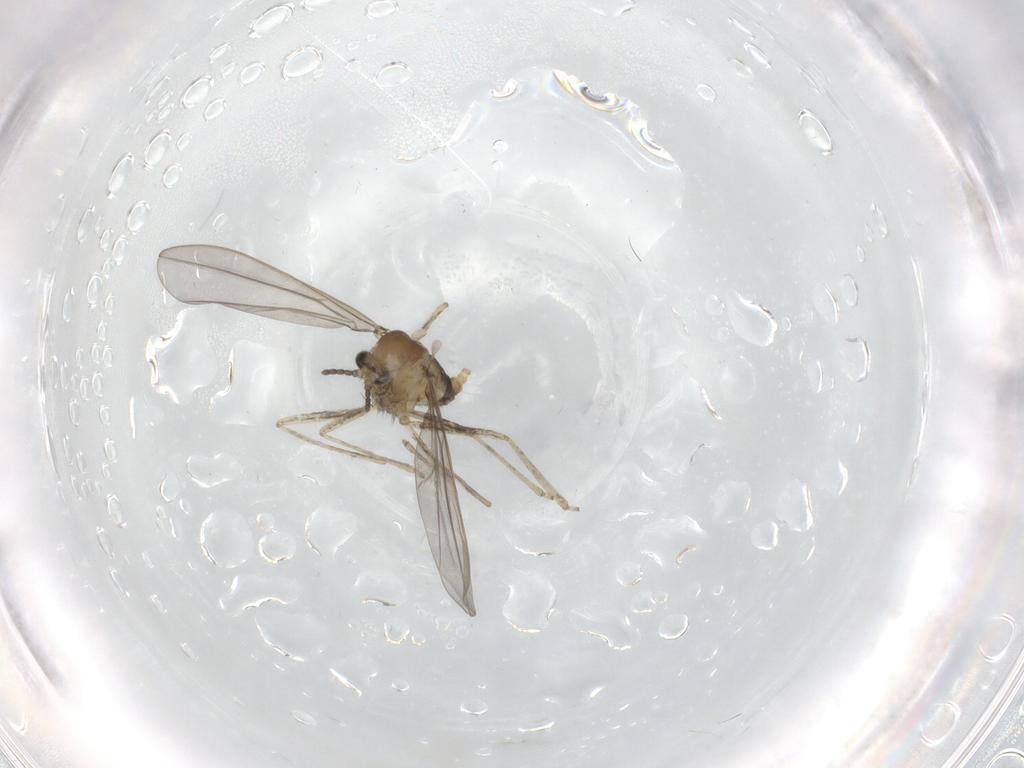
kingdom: Animalia
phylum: Arthropoda
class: Insecta
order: Diptera
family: Cecidomyiidae
